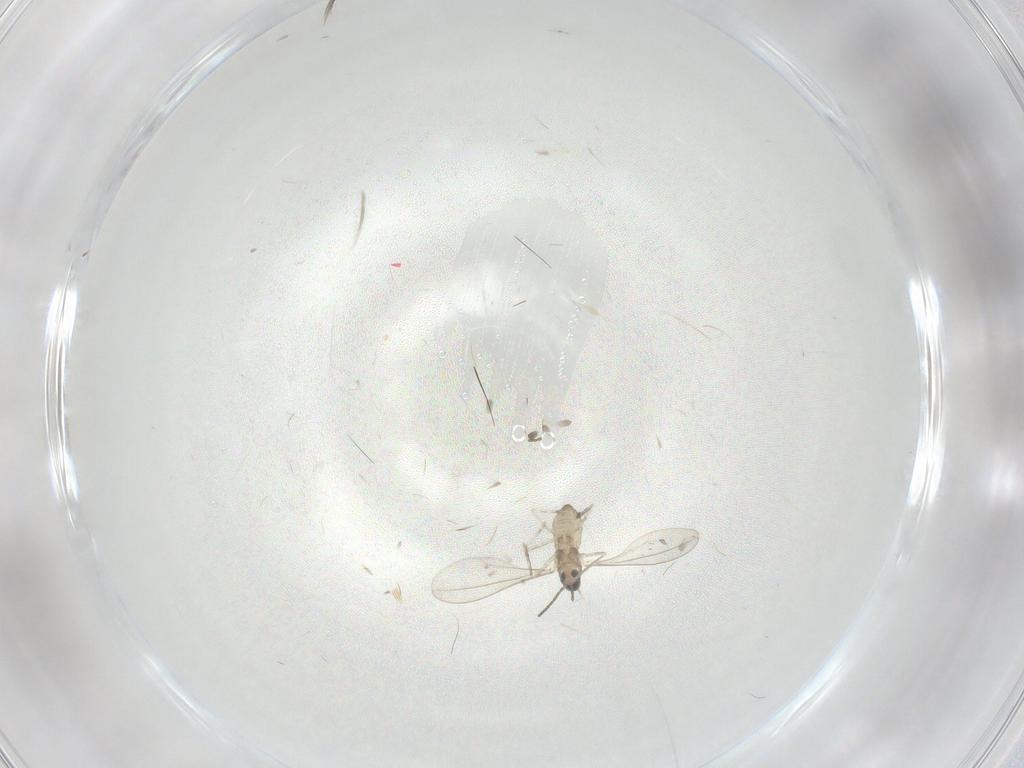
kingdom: Animalia
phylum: Arthropoda
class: Insecta
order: Diptera
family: Cecidomyiidae
